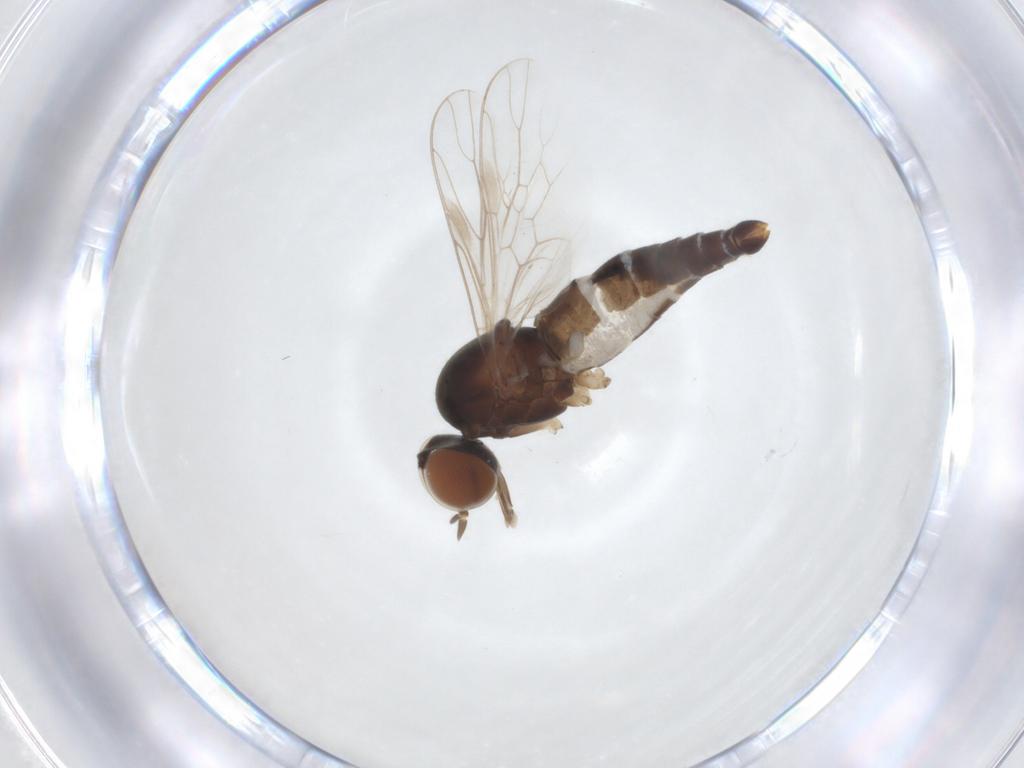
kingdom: Animalia
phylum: Arthropoda
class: Insecta
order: Diptera
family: Scenopinidae
